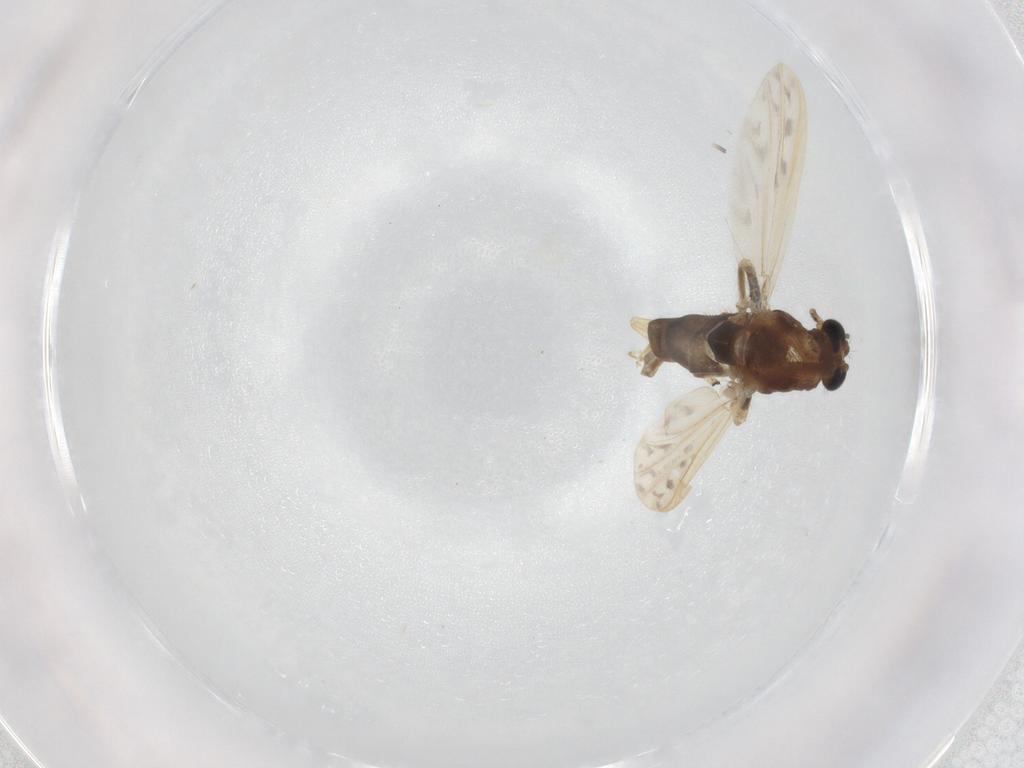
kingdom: Animalia
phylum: Arthropoda
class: Insecta
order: Diptera
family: Chironomidae
